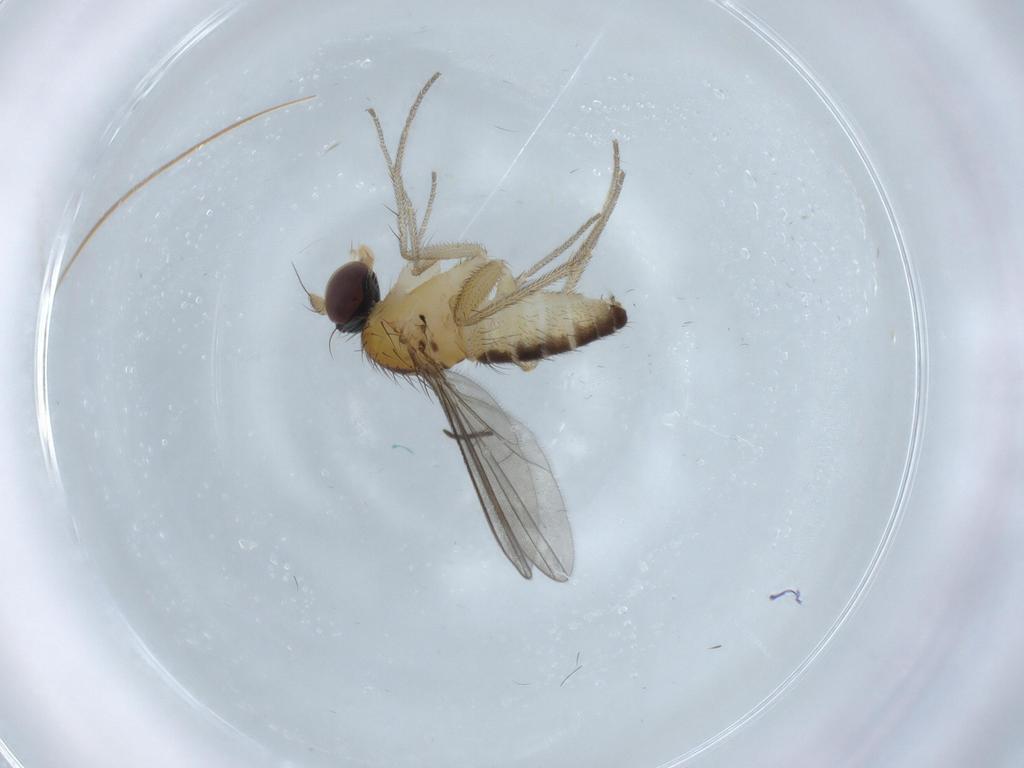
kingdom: Animalia
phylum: Arthropoda
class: Insecta
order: Diptera
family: Dolichopodidae
